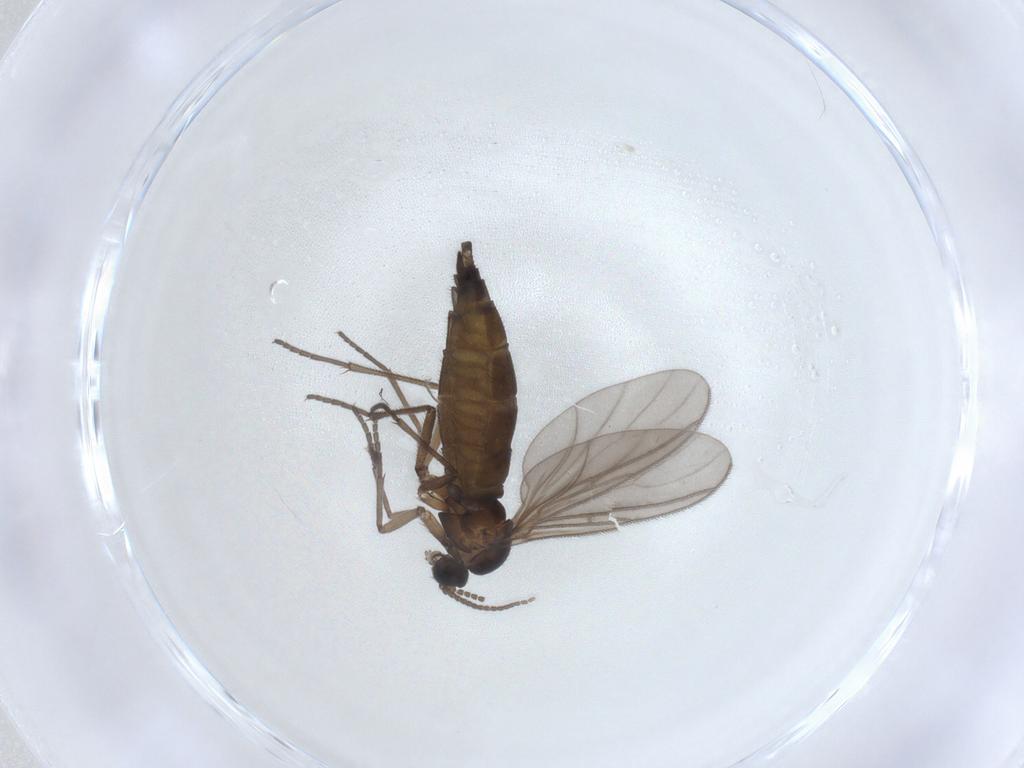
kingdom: Animalia
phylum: Arthropoda
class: Insecta
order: Diptera
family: Sciaridae
